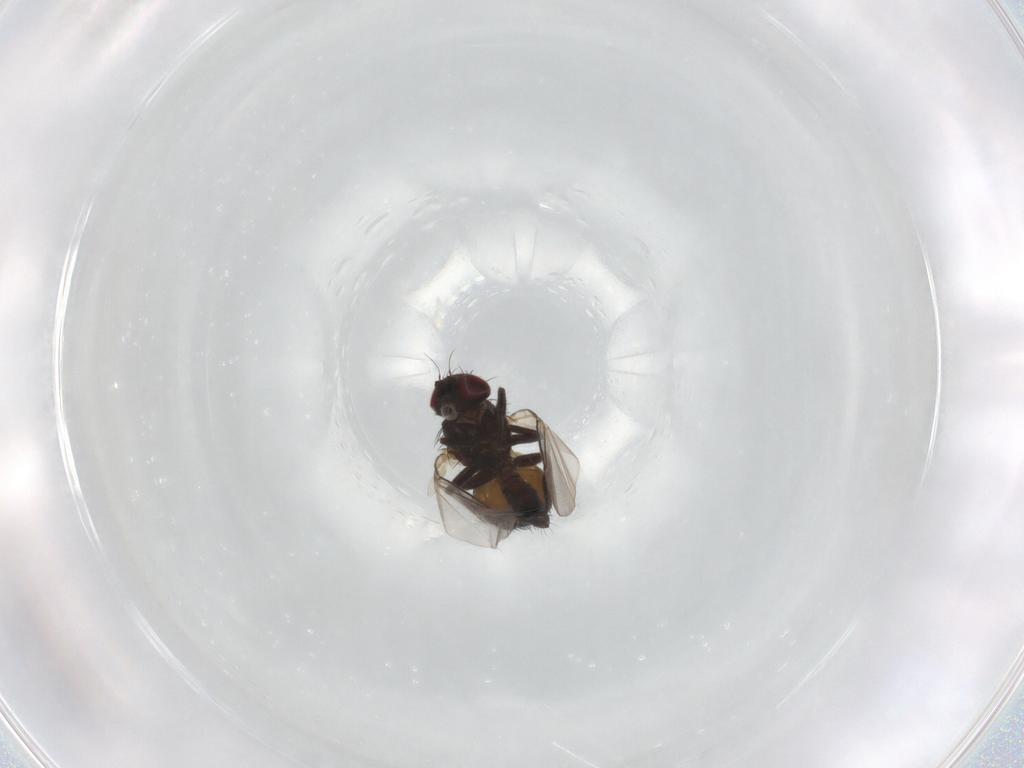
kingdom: Animalia
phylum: Arthropoda
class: Insecta
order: Diptera
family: Agromyzidae
